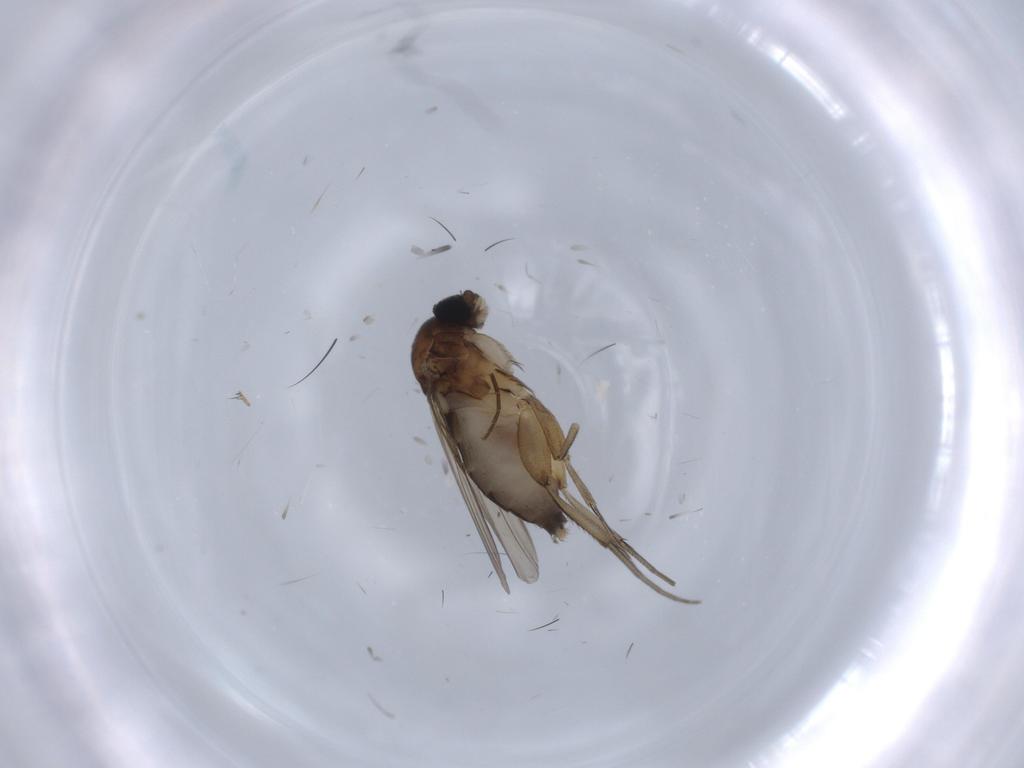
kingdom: Animalia
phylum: Arthropoda
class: Insecta
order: Diptera
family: Phoridae
